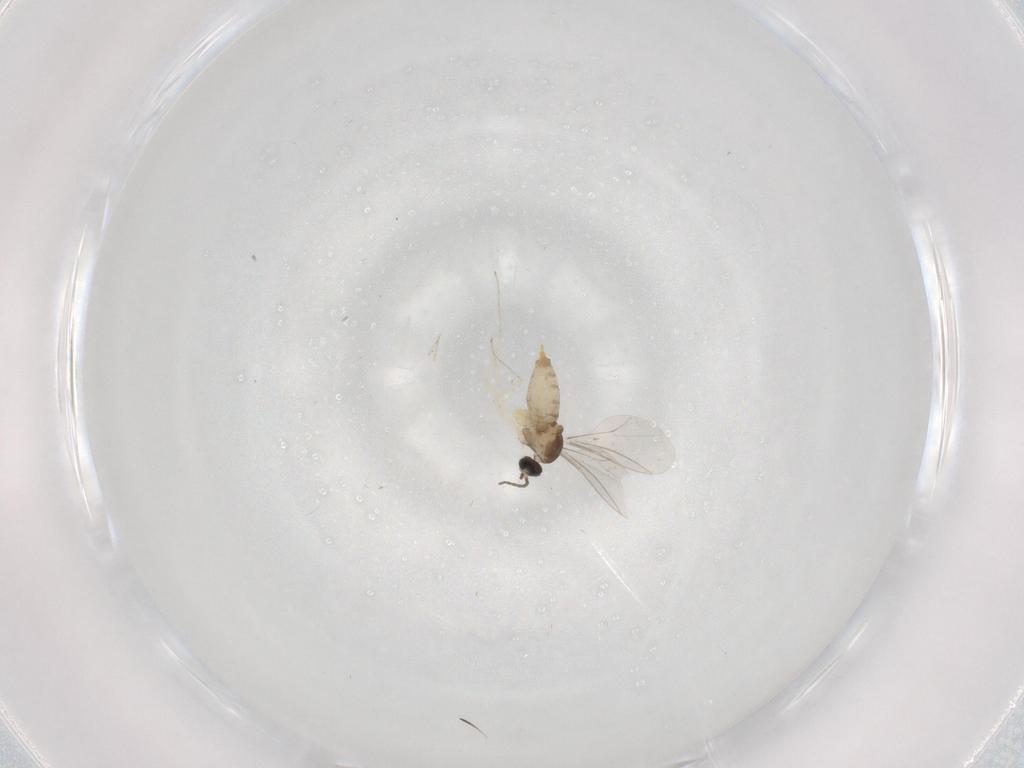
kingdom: Animalia
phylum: Arthropoda
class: Insecta
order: Diptera
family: Cecidomyiidae
